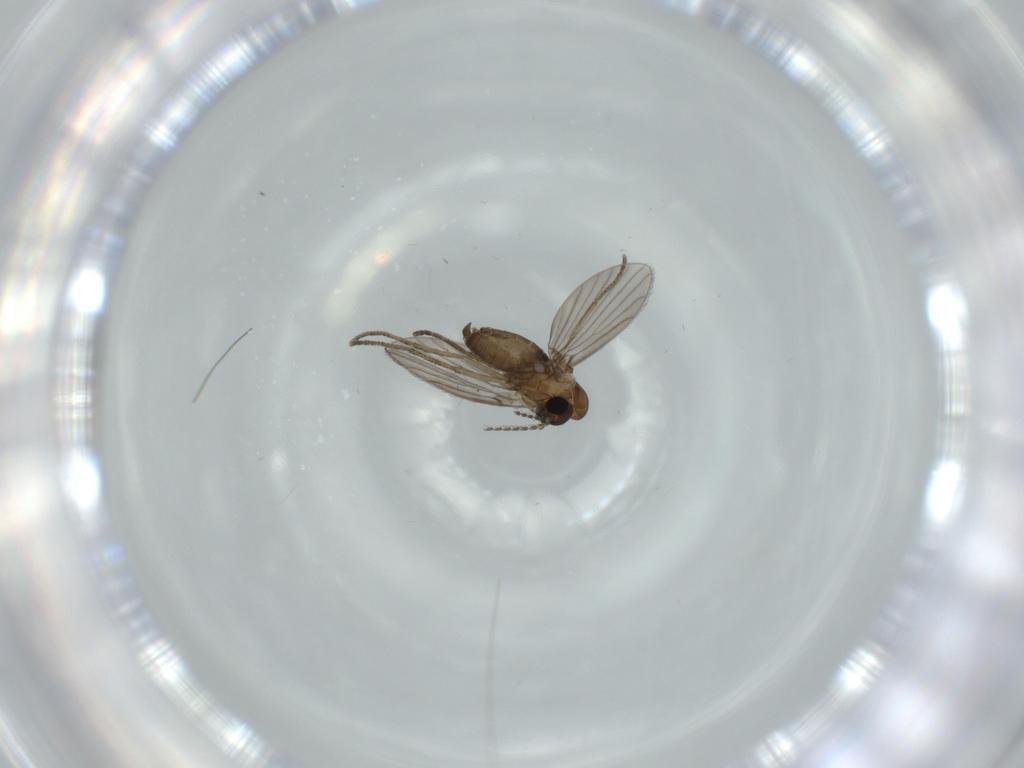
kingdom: Animalia
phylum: Arthropoda
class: Insecta
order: Diptera
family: Psychodidae
